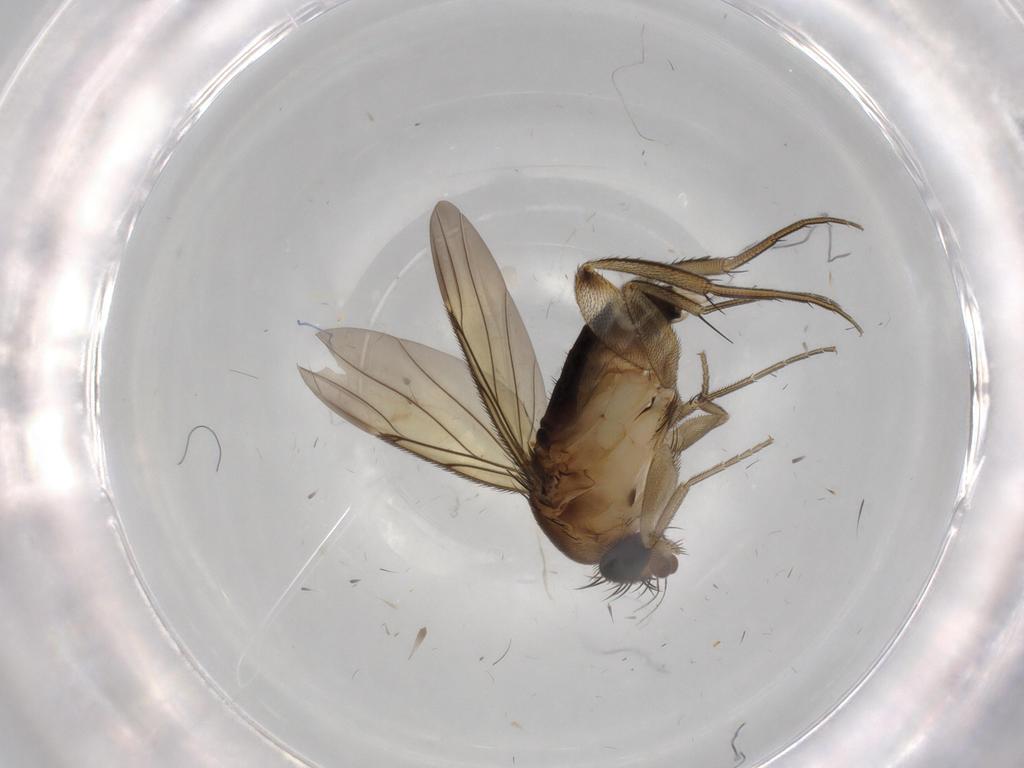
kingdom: Animalia
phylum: Arthropoda
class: Insecta
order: Diptera
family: Phoridae
